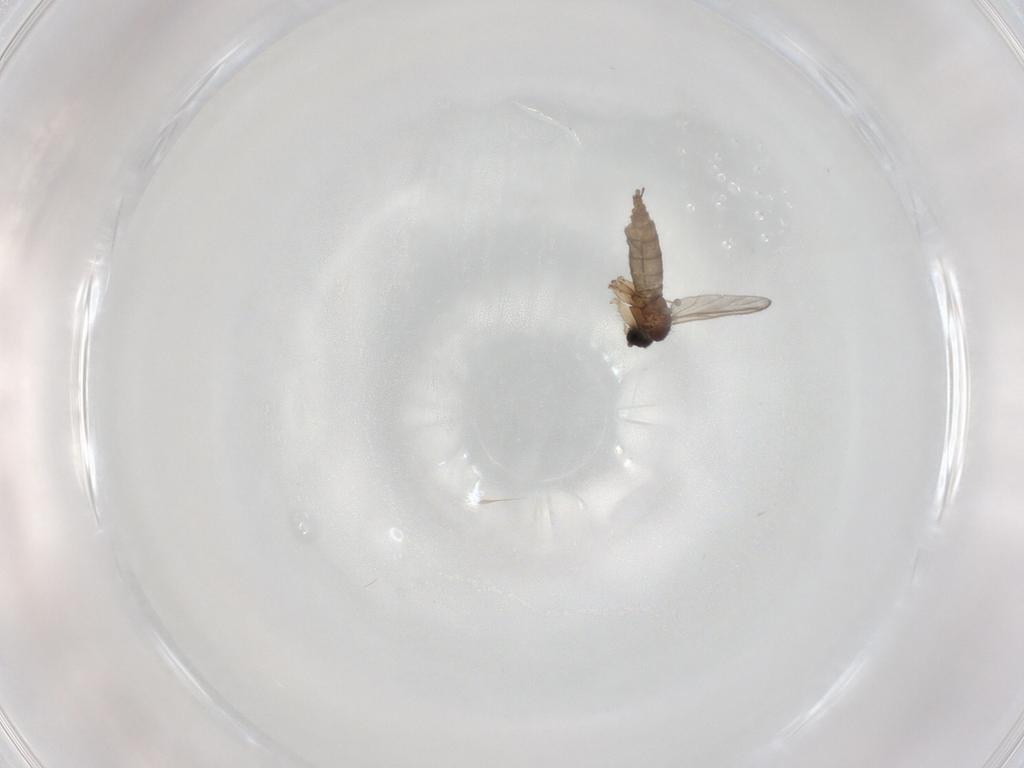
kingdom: Animalia
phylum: Arthropoda
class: Insecta
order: Diptera
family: Sciaridae
